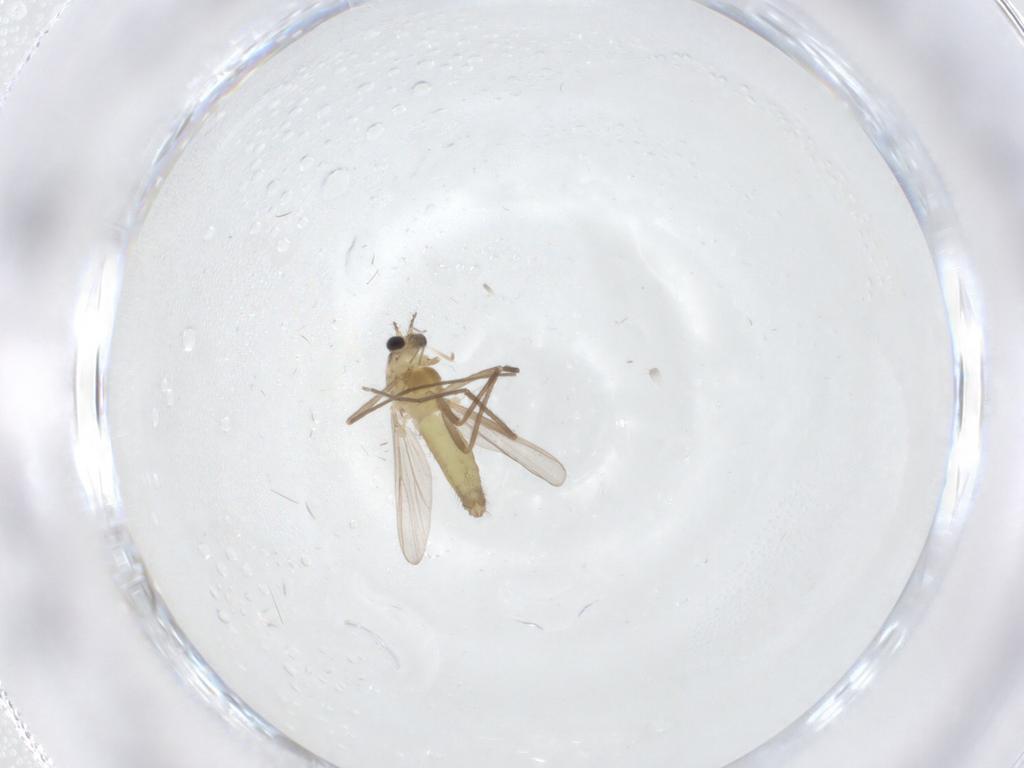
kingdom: Animalia
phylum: Arthropoda
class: Insecta
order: Diptera
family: Chironomidae
